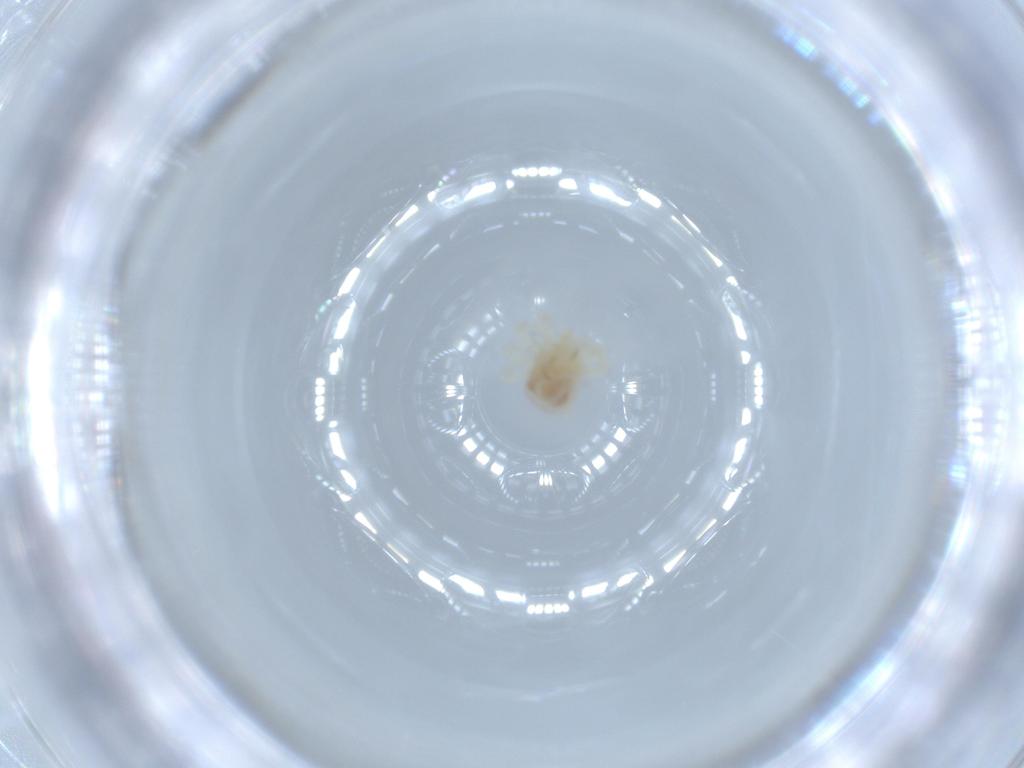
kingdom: Animalia
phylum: Arthropoda
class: Arachnida
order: Trombidiformes
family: Anystidae
